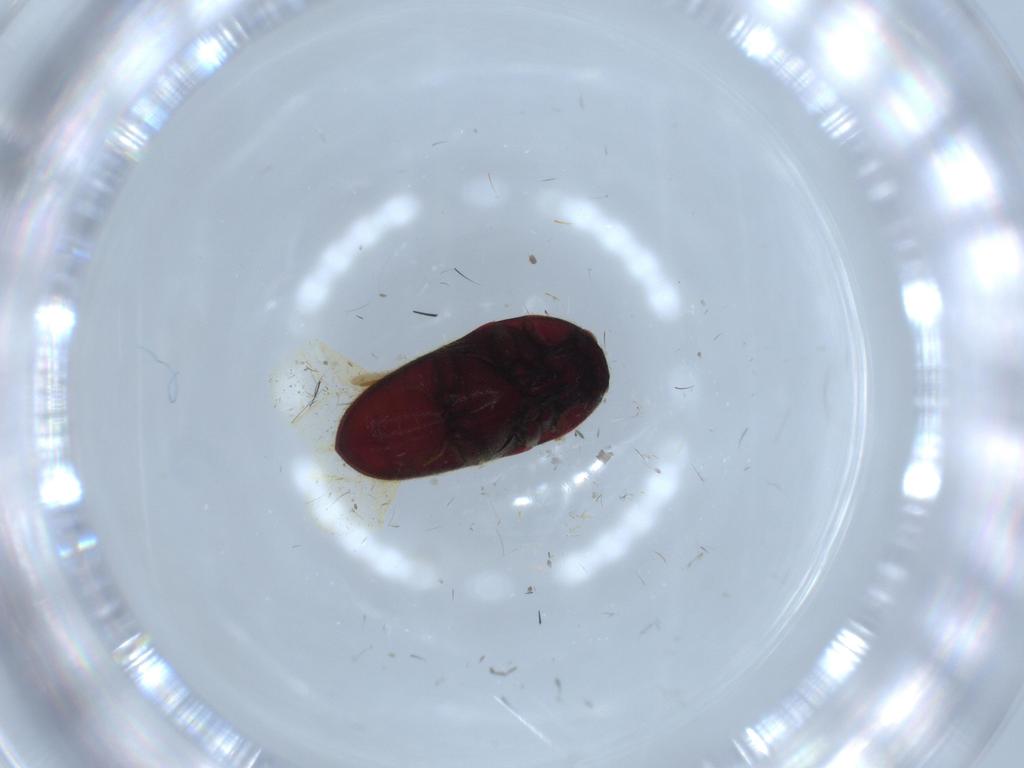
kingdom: Animalia
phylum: Arthropoda
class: Insecta
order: Coleoptera
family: Throscidae
